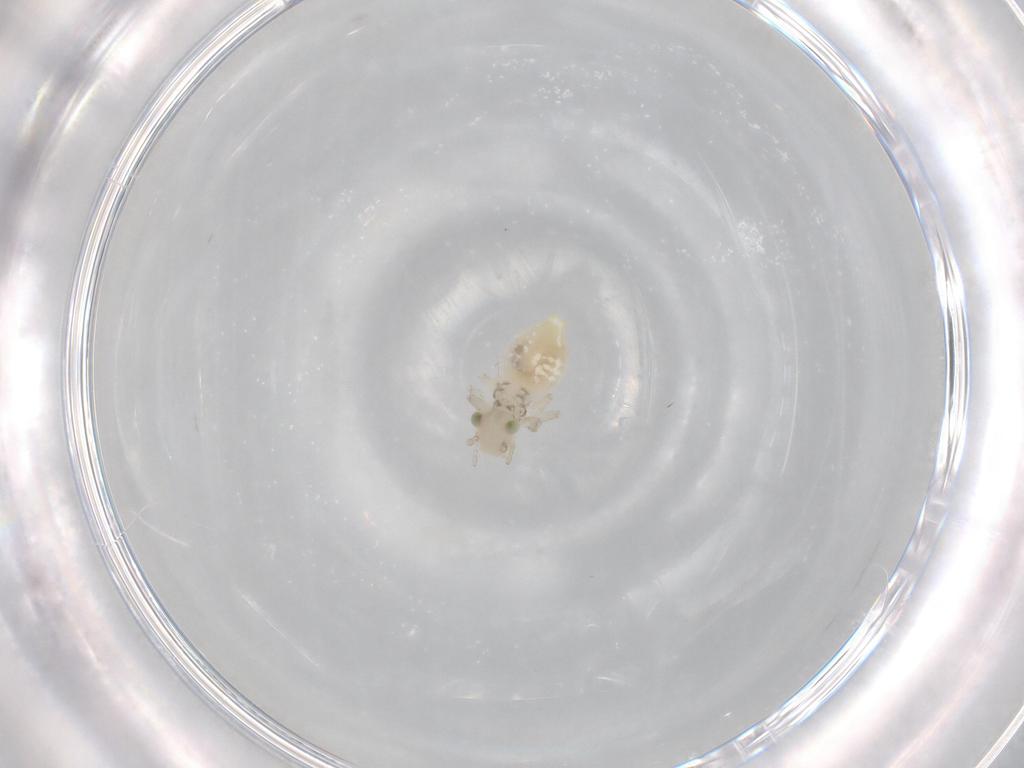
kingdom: Animalia
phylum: Arthropoda
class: Insecta
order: Psocodea
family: Caeciliusidae
